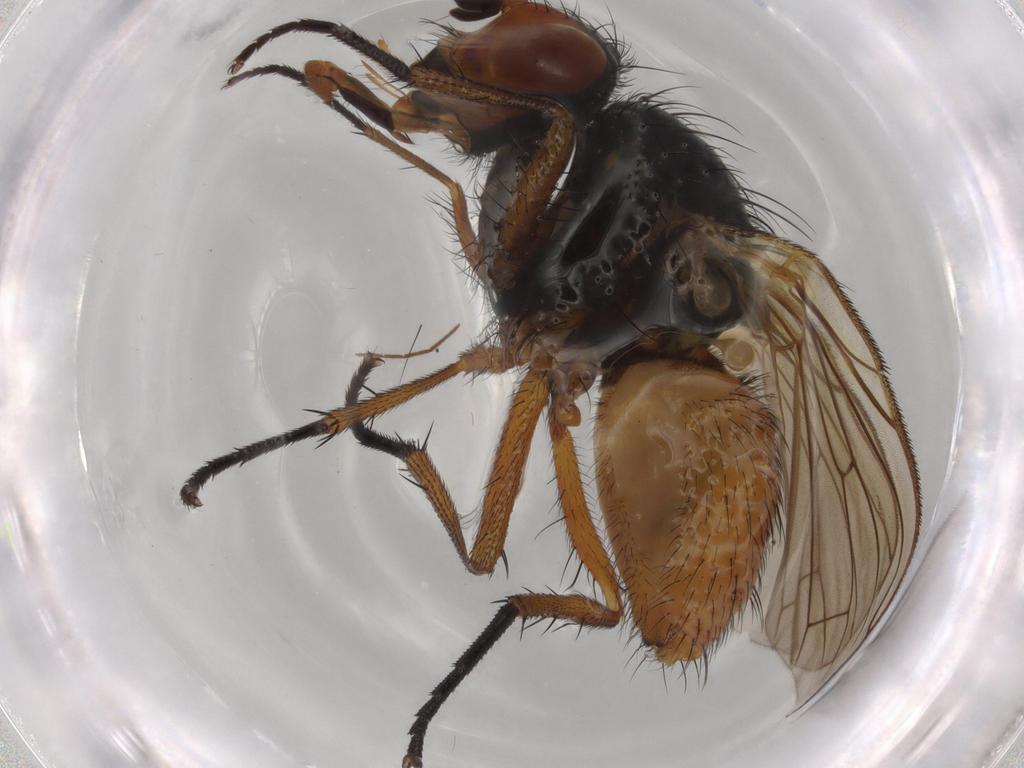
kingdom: Animalia
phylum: Arthropoda
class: Insecta
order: Diptera
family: Anthomyiidae
